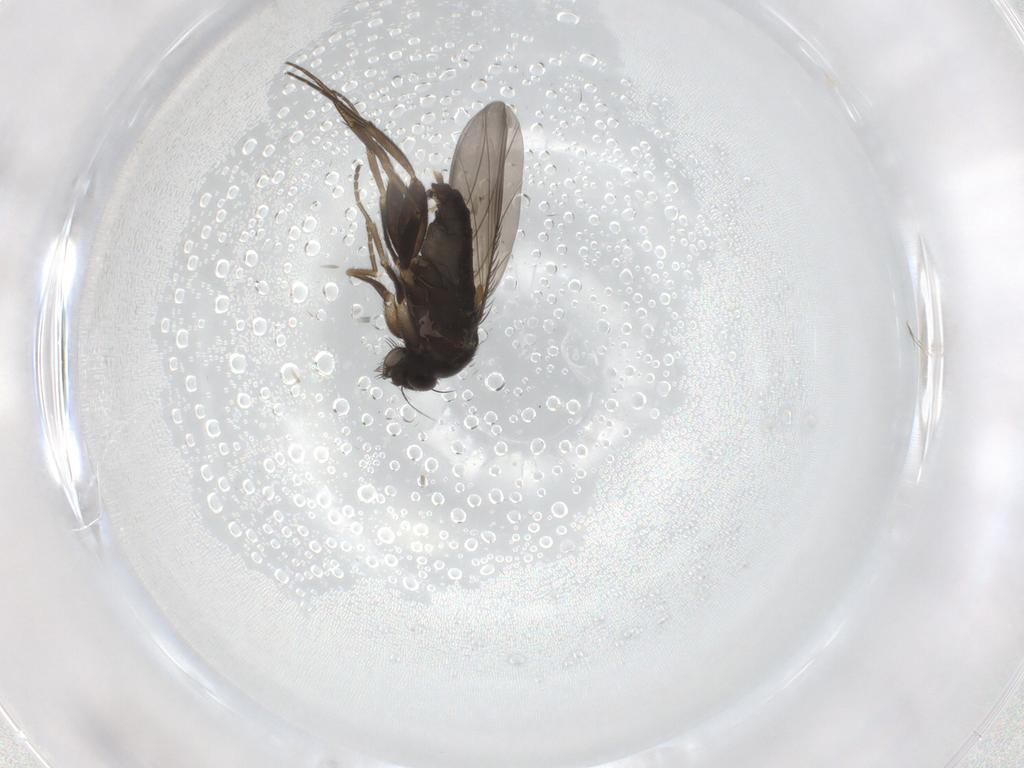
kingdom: Animalia
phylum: Arthropoda
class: Insecta
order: Diptera
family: Phoridae
